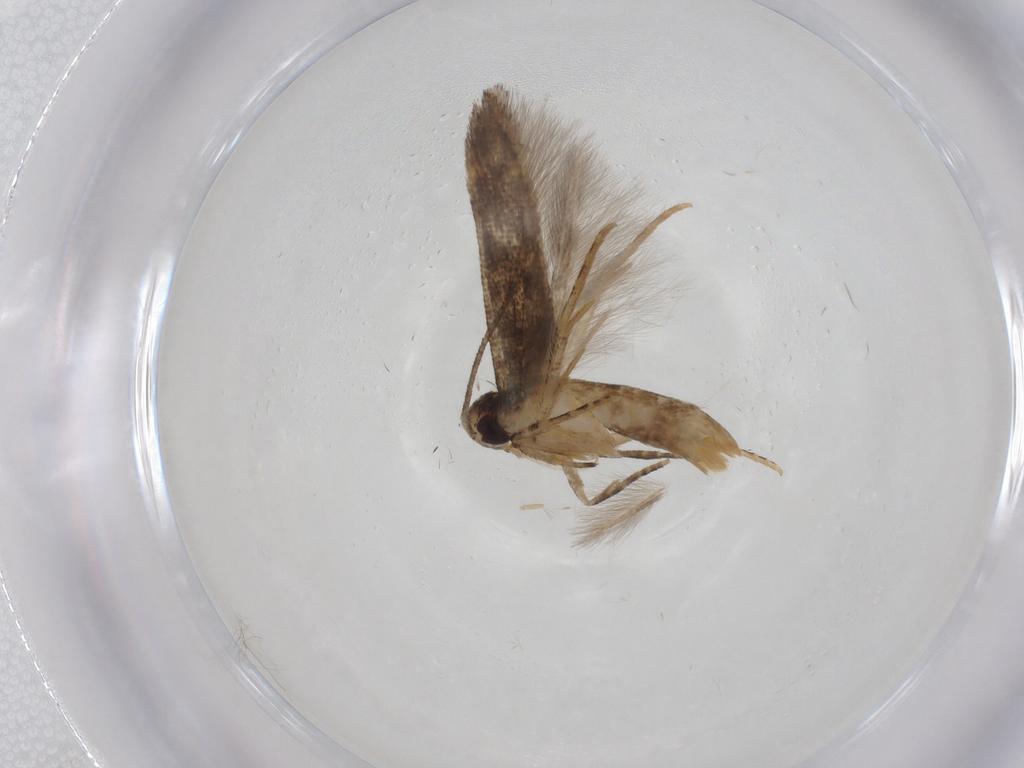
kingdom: Animalia
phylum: Arthropoda
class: Insecta
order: Lepidoptera
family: Cosmopterigidae
